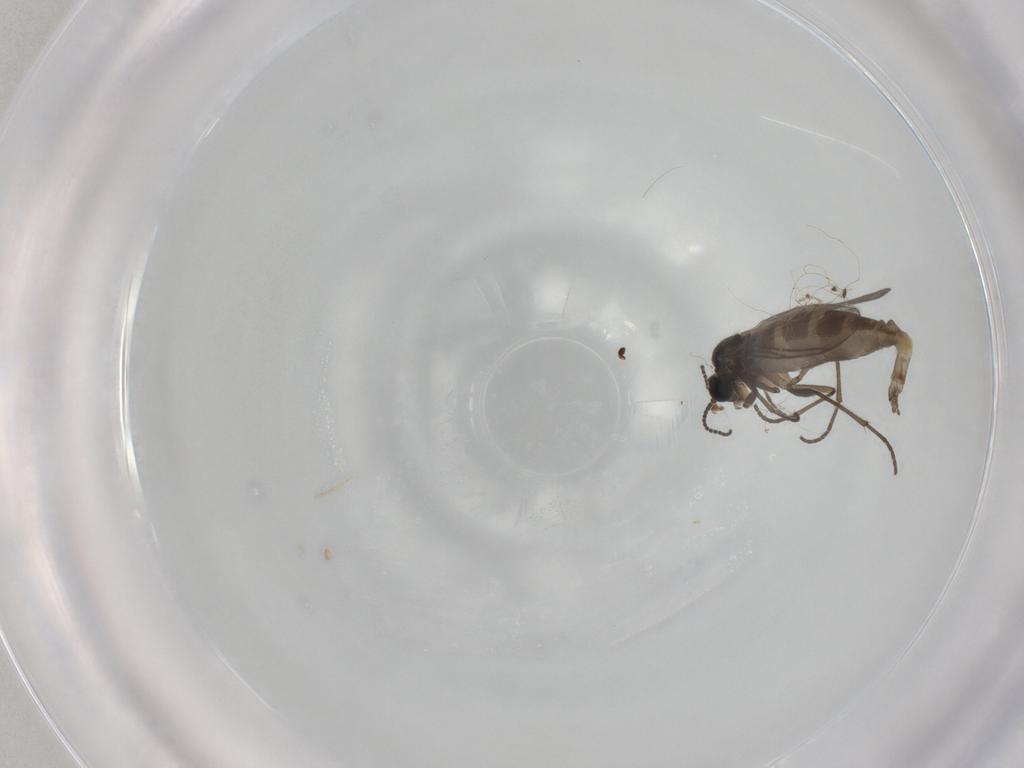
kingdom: Animalia
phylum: Arthropoda
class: Insecta
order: Diptera
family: Sciaridae
